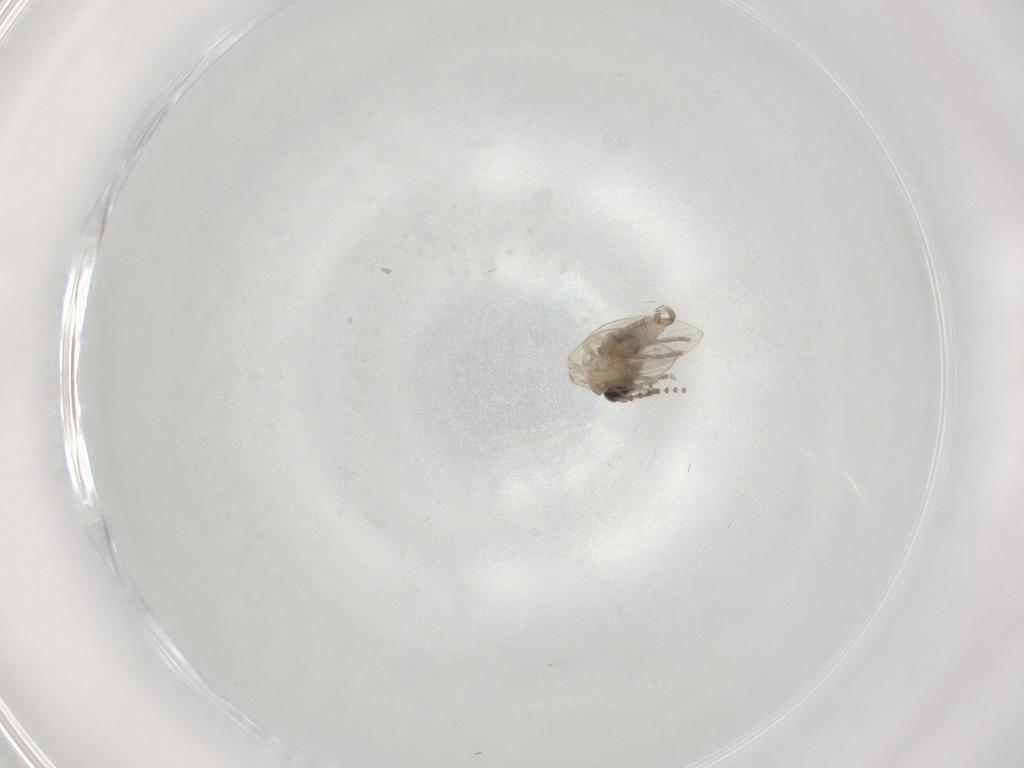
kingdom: Animalia
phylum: Arthropoda
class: Insecta
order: Diptera
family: Psychodidae
